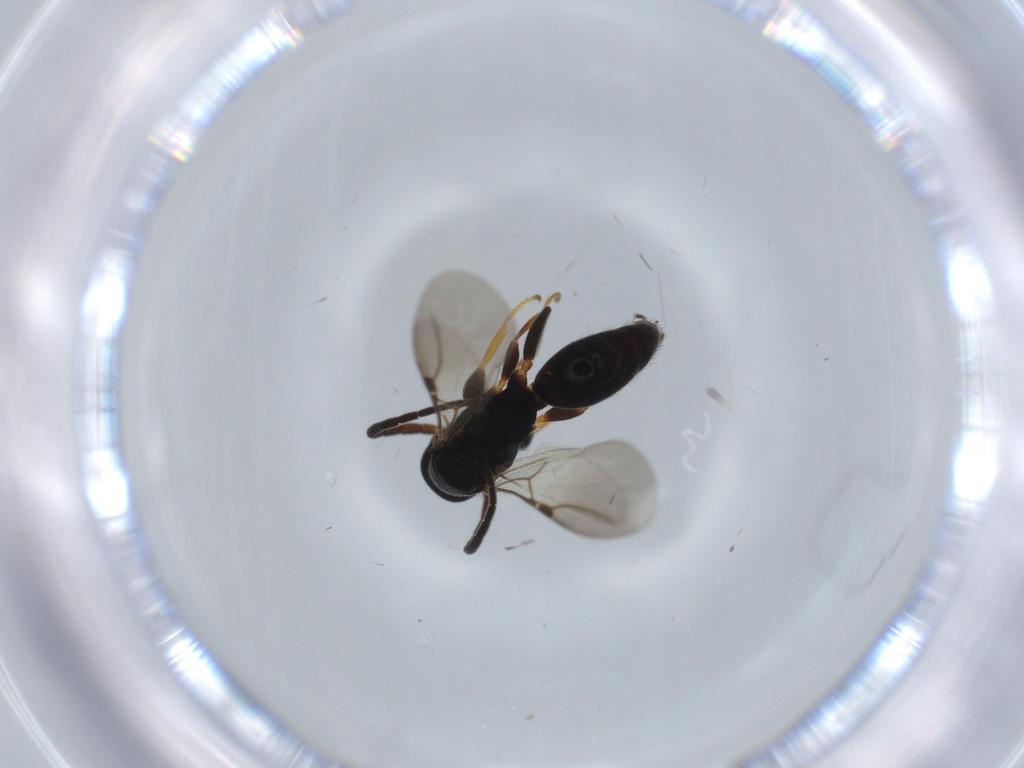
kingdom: Animalia
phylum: Arthropoda
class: Insecta
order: Hymenoptera
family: Bethylidae
